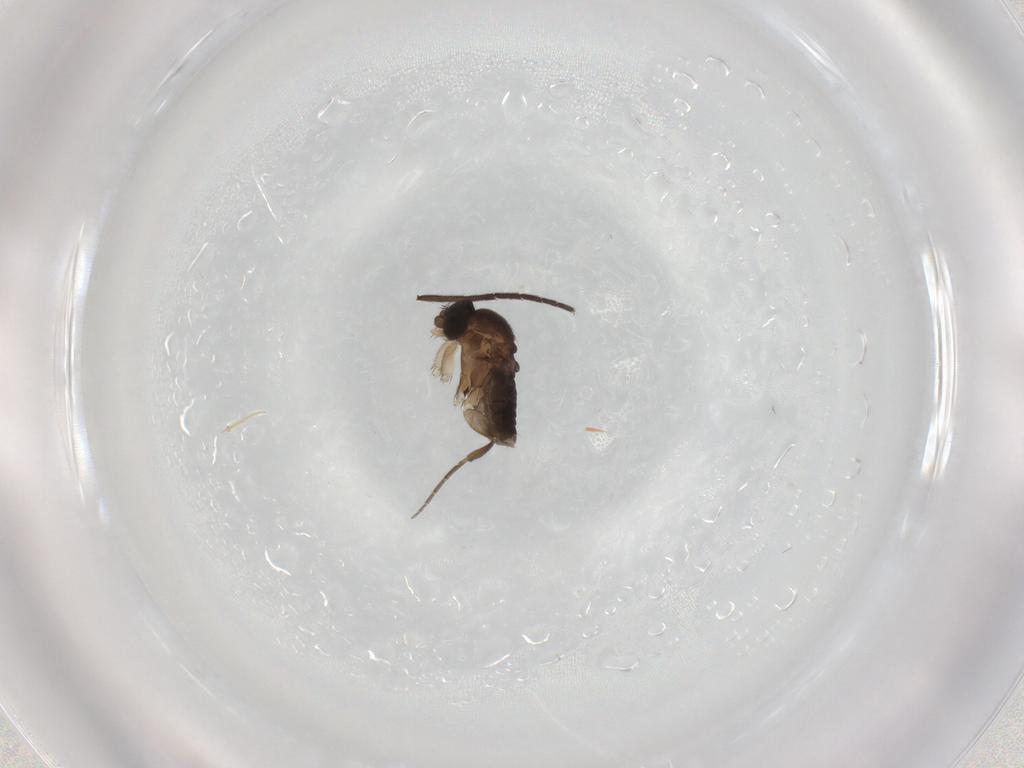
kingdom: Animalia
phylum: Arthropoda
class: Insecta
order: Diptera
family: Phoridae
